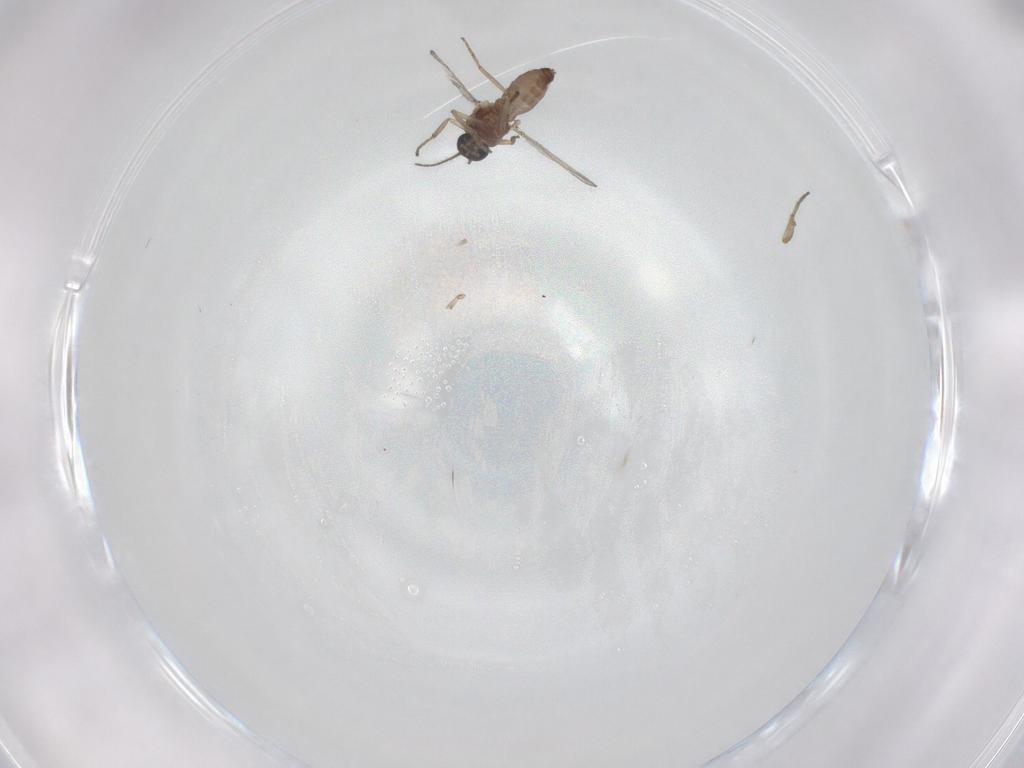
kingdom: Animalia
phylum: Arthropoda
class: Insecta
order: Diptera
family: Ceratopogonidae
